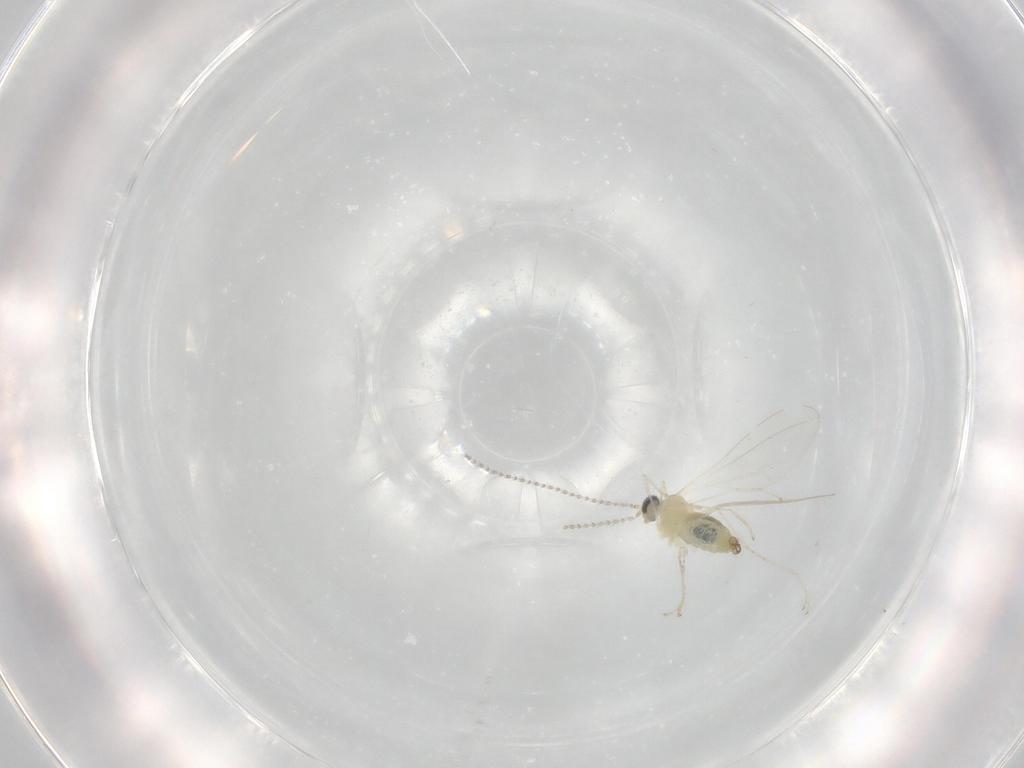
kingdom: Animalia
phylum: Arthropoda
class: Insecta
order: Diptera
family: Cecidomyiidae
